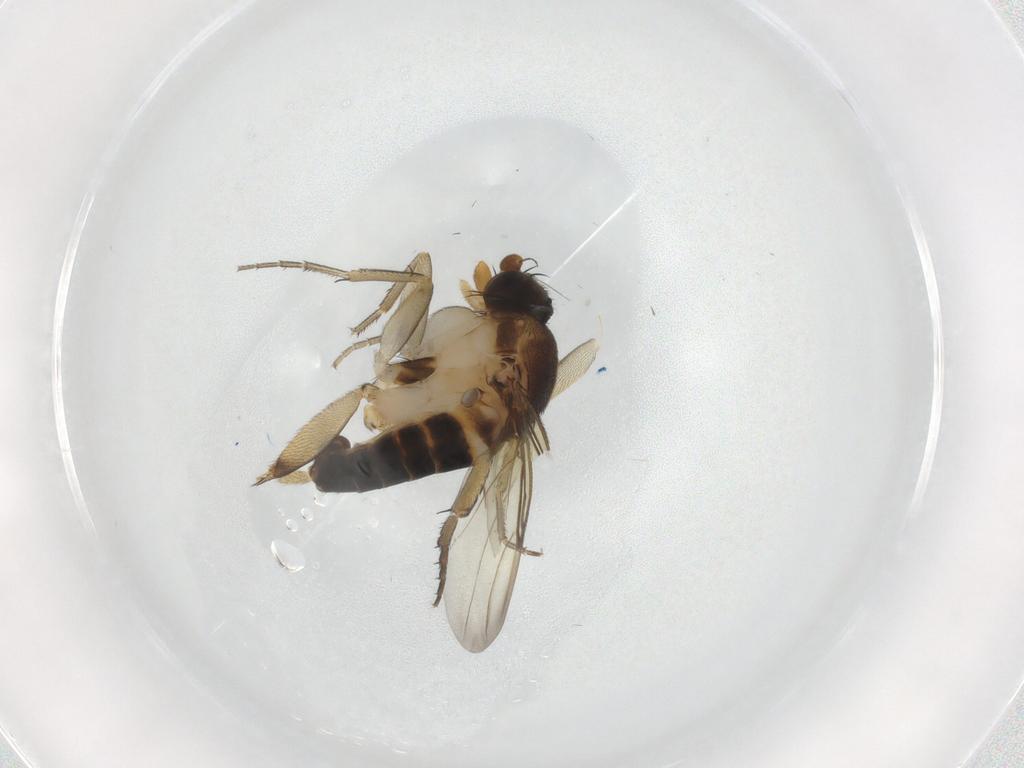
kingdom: Animalia
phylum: Arthropoda
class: Insecta
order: Diptera
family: Phoridae
